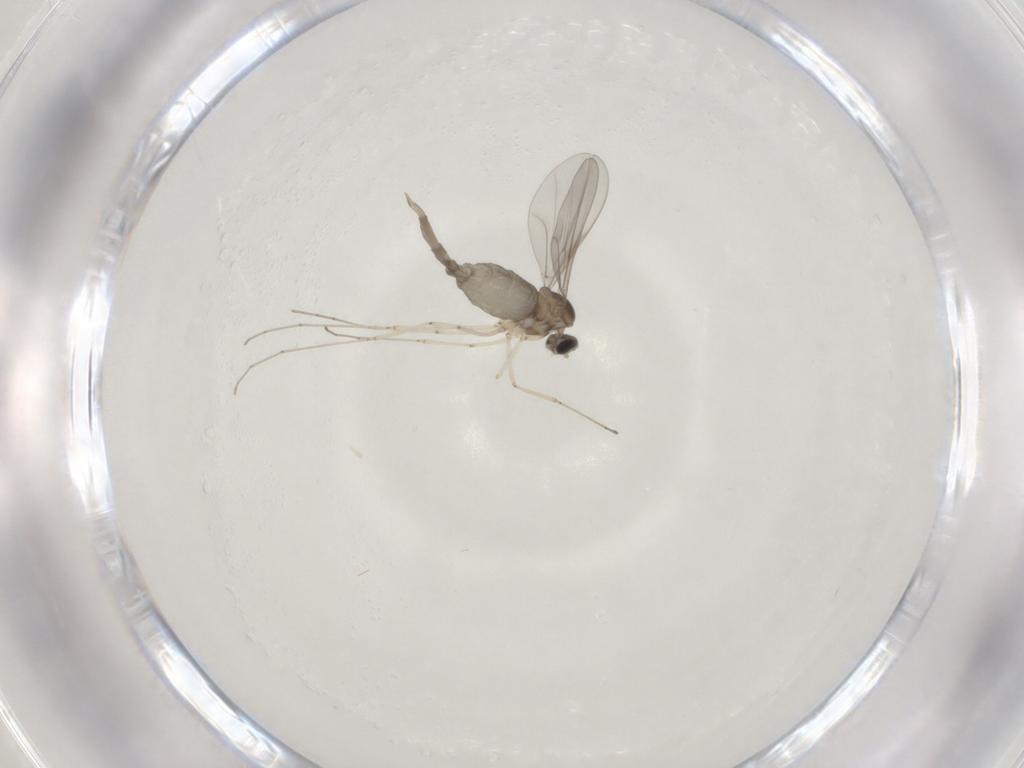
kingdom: Animalia
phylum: Arthropoda
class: Insecta
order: Diptera
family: Cecidomyiidae
